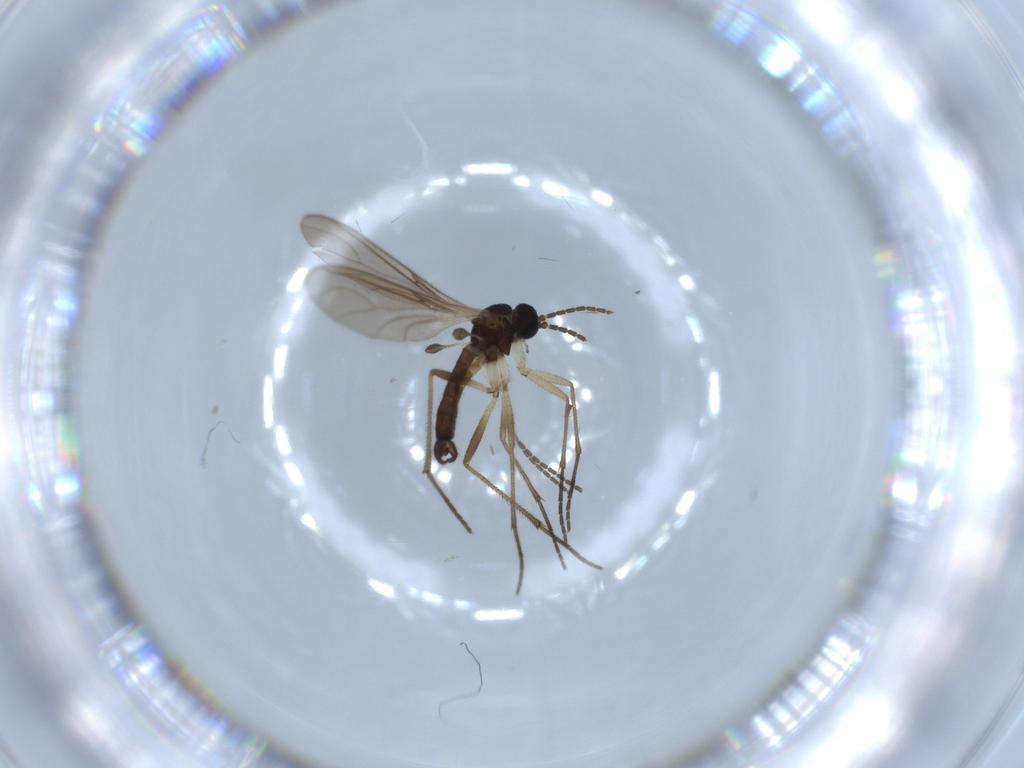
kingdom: Animalia
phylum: Arthropoda
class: Insecta
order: Diptera
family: Sciaridae
